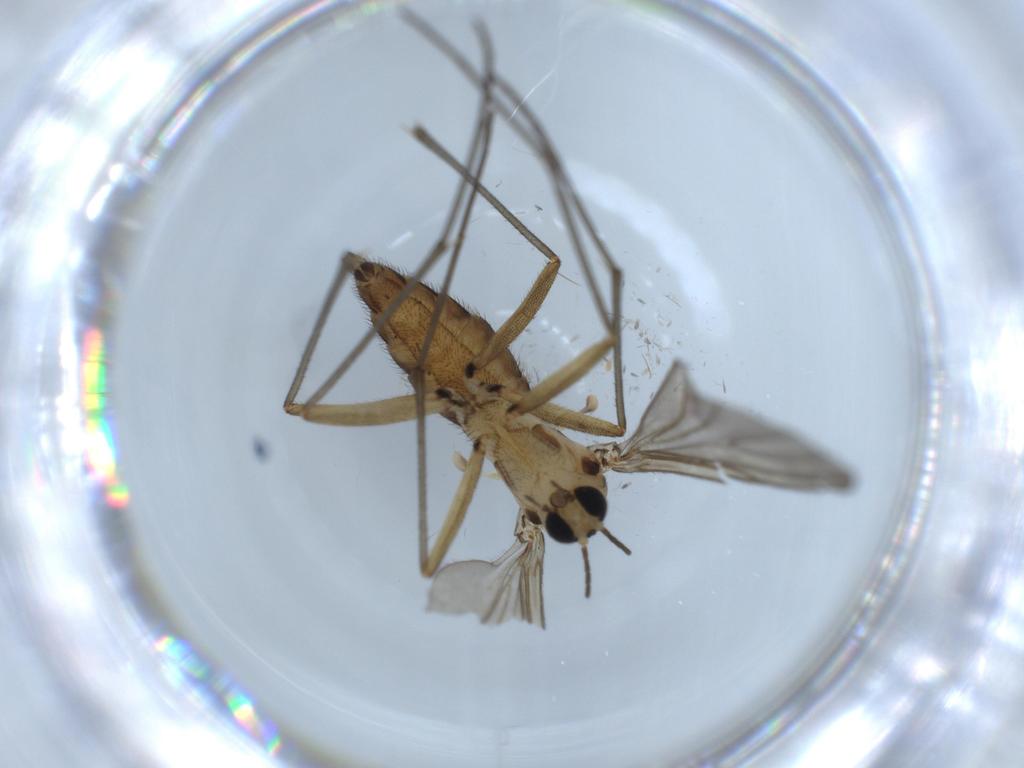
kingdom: Animalia
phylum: Arthropoda
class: Insecta
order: Diptera
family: Sciaridae
